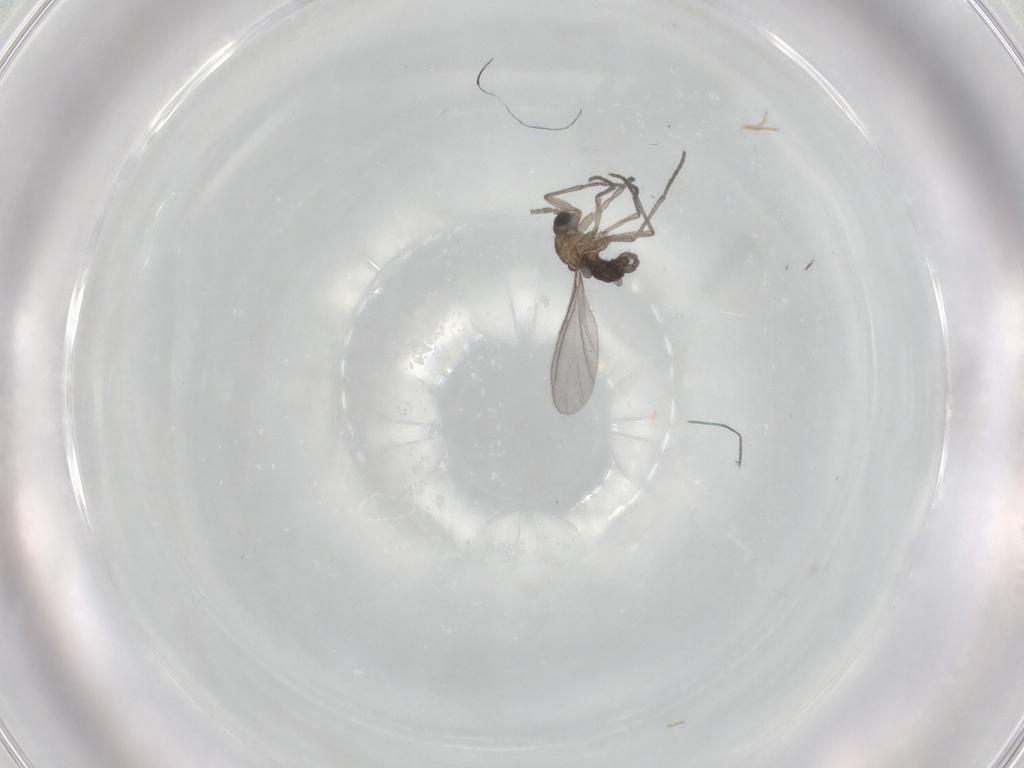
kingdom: Animalia
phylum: Arthropoda
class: Insecta
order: Diptera
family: Sciaridae
